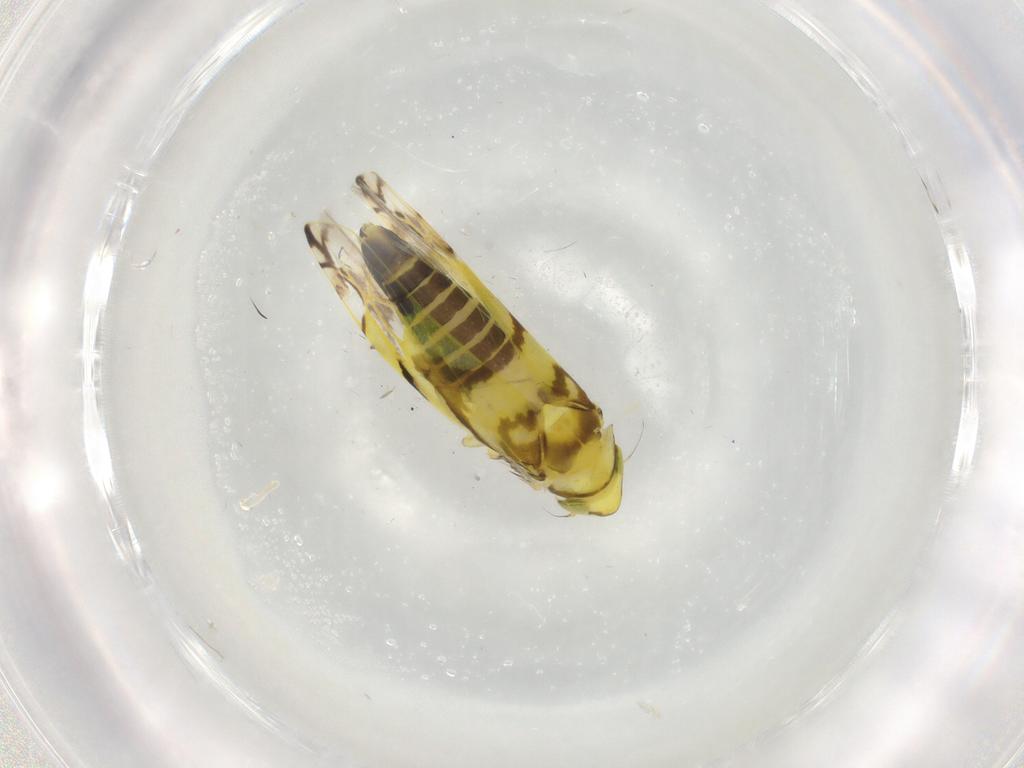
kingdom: Animalia
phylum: Arthropoda
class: Insecta
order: Hemiptera
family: Cicadellidae
